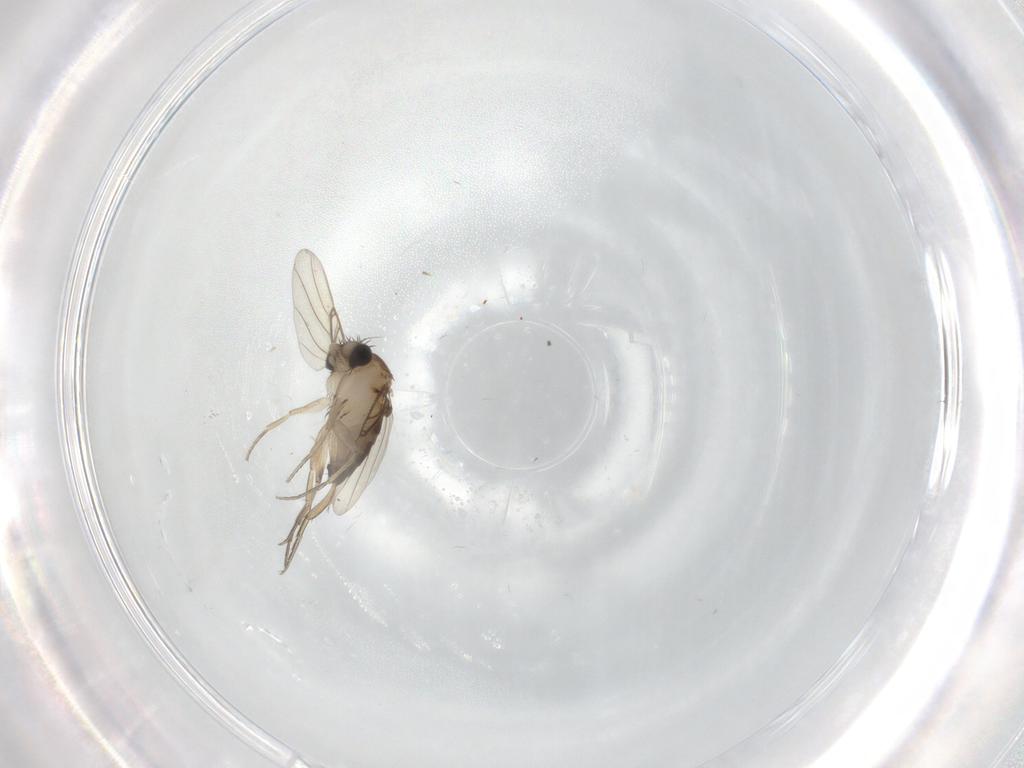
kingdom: Animalia
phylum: Arthropoda
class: Insecta
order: Diptera
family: Phoridae
